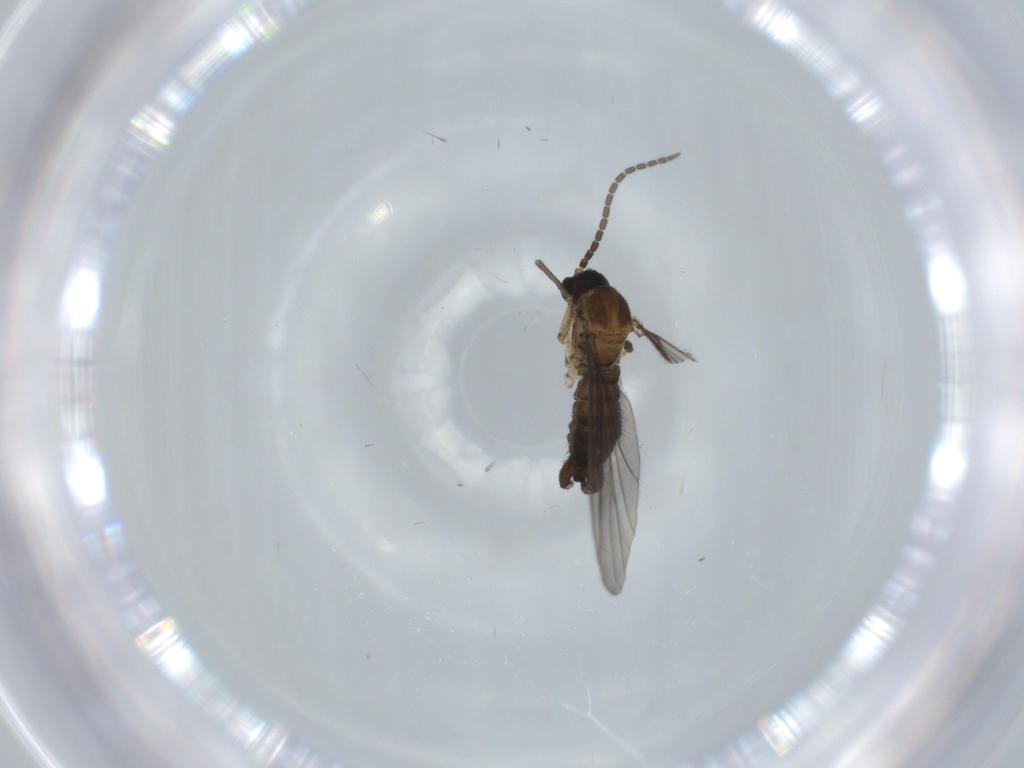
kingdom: Animalia
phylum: Arthropoda
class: Insecta
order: Diptera
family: Sciaridae
